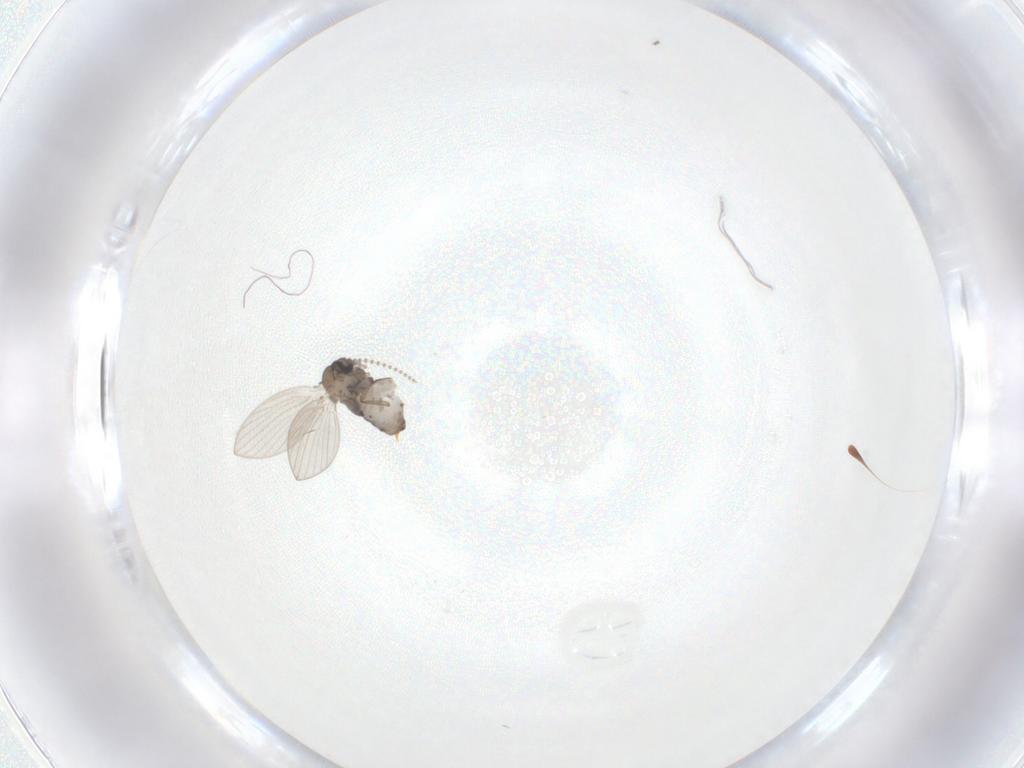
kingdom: Animalia
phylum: Arthropoda
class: Insecta
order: Diptera
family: Psychodidae
